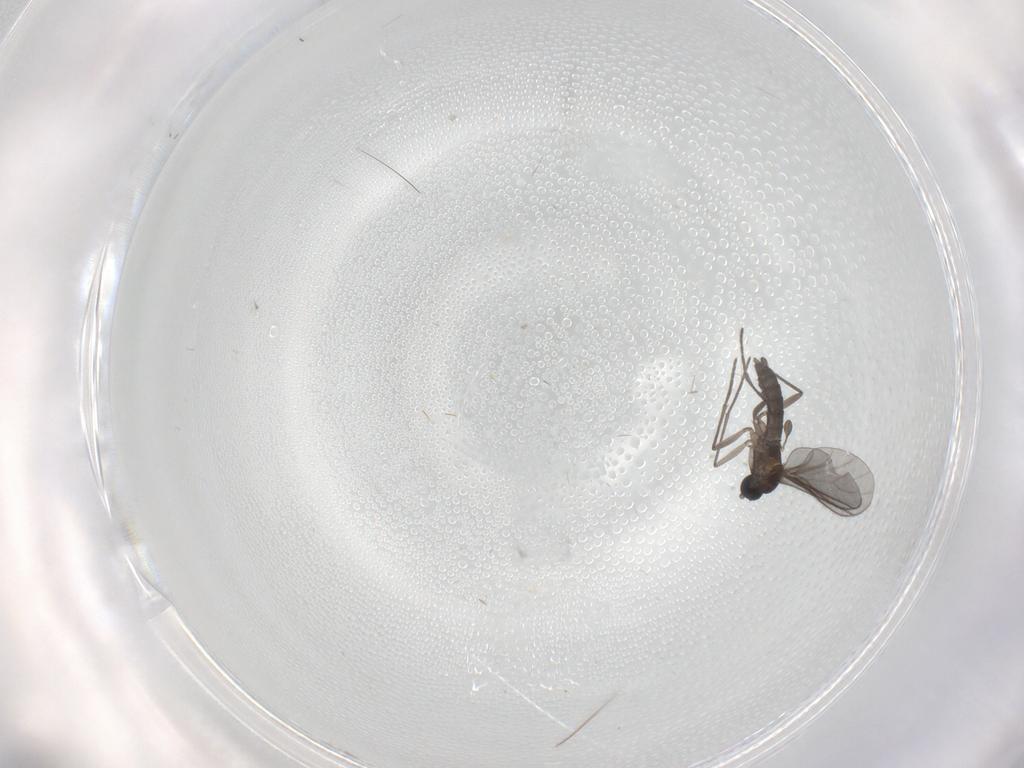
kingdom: Animalia
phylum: Arthropoda
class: Insecta
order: Diptera
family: Sciaridae
